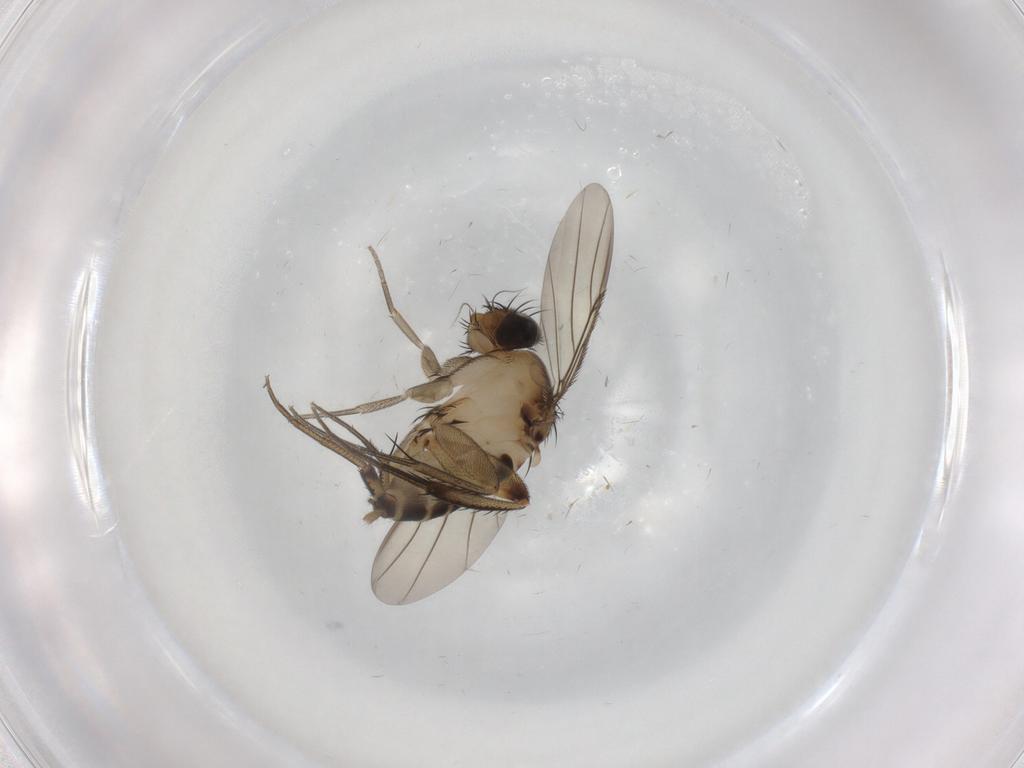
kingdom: Animalia
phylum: Arthropoda
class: Insecta
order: Diptera
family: Phoridae
